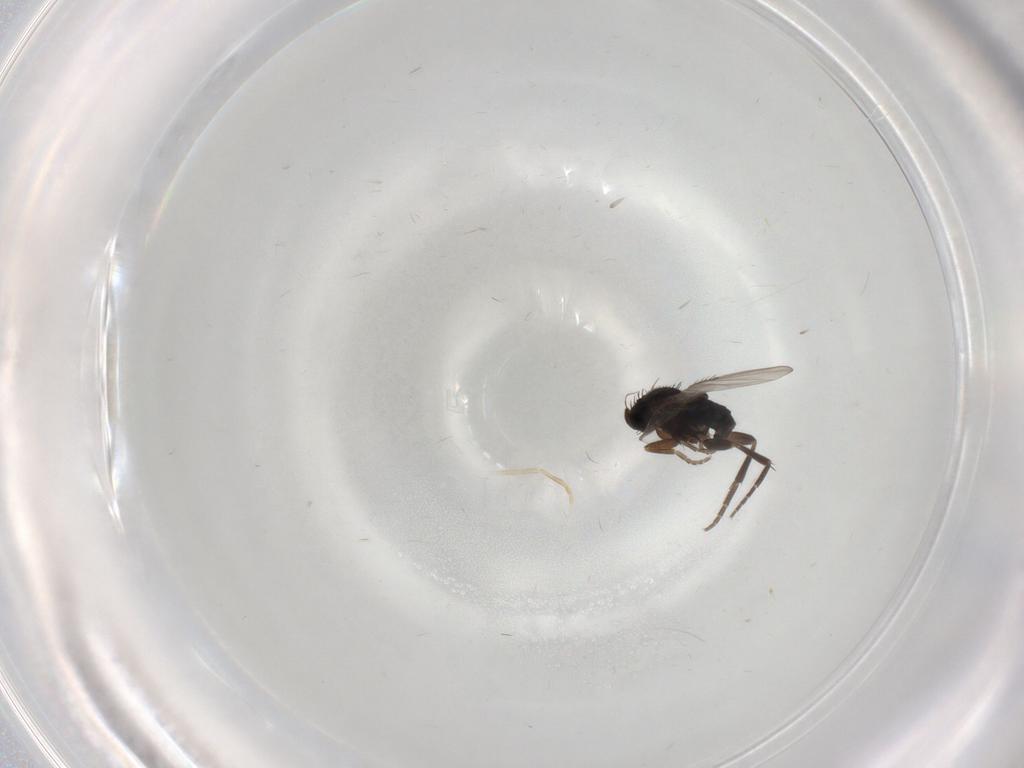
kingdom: Animalia
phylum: Arthropoda
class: Insecta
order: Diptera
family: Phoridae
